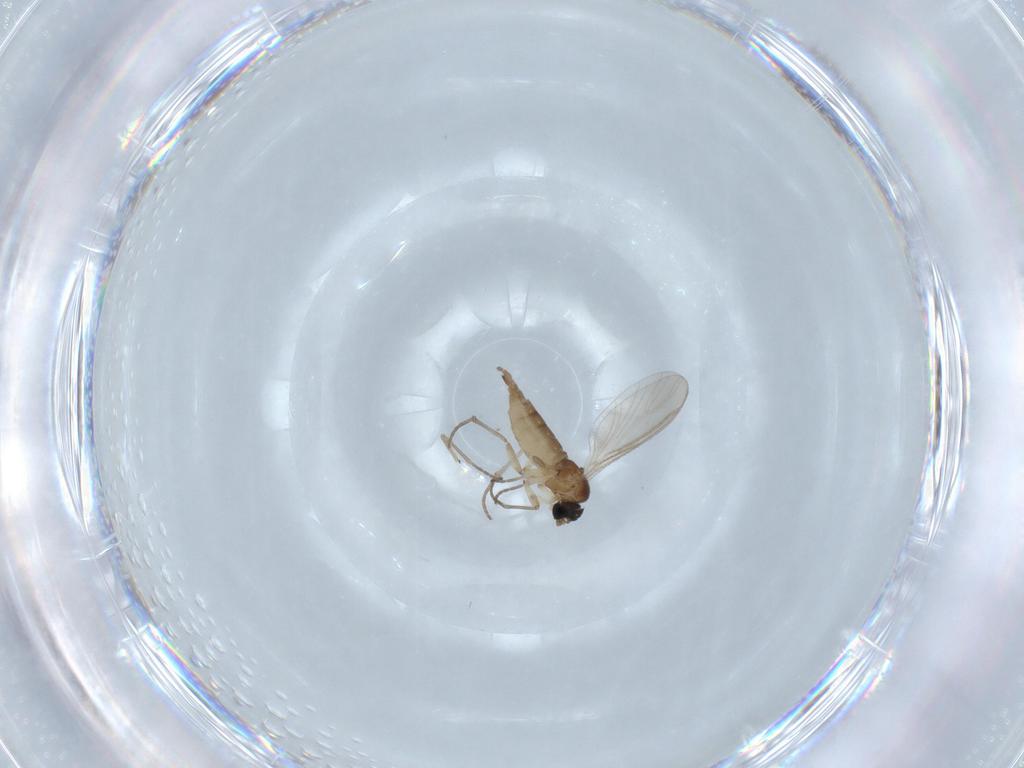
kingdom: Animalia
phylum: Arthropoda
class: Insecta
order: Diptera
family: Sciaridae
